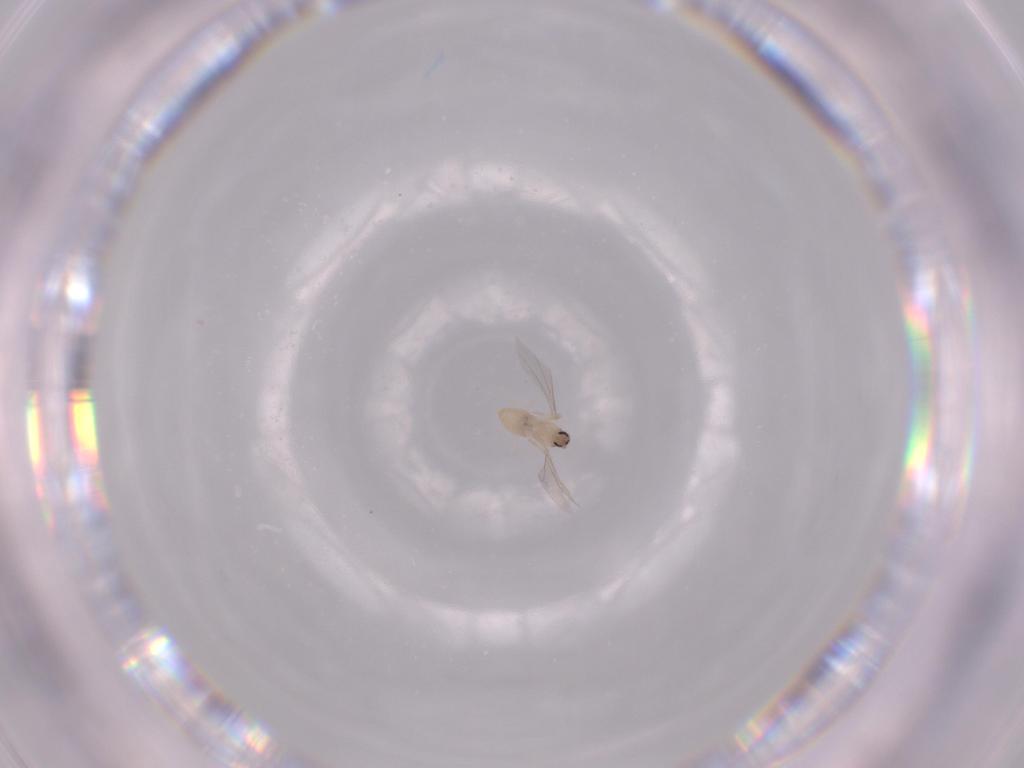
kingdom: Animalia
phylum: Arthropoda
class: Insecta
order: Diptera
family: Cecidomyiidae
